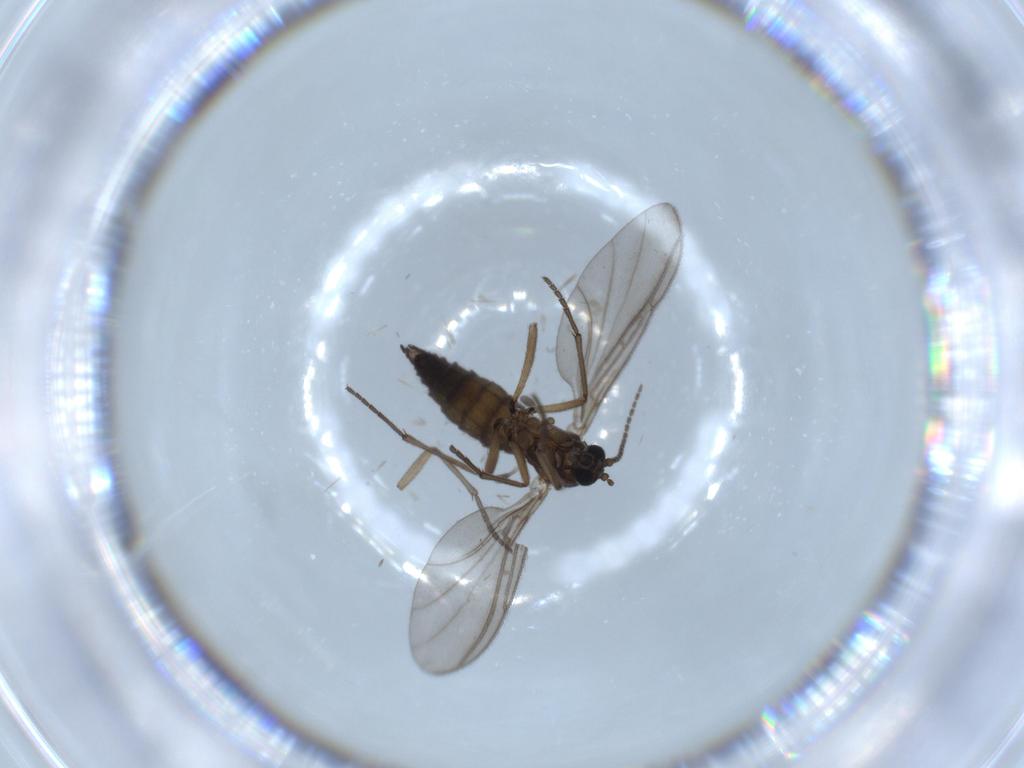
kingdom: Animalia
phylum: Arthropoda
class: Insecta
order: Diptera
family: Sciaridae
